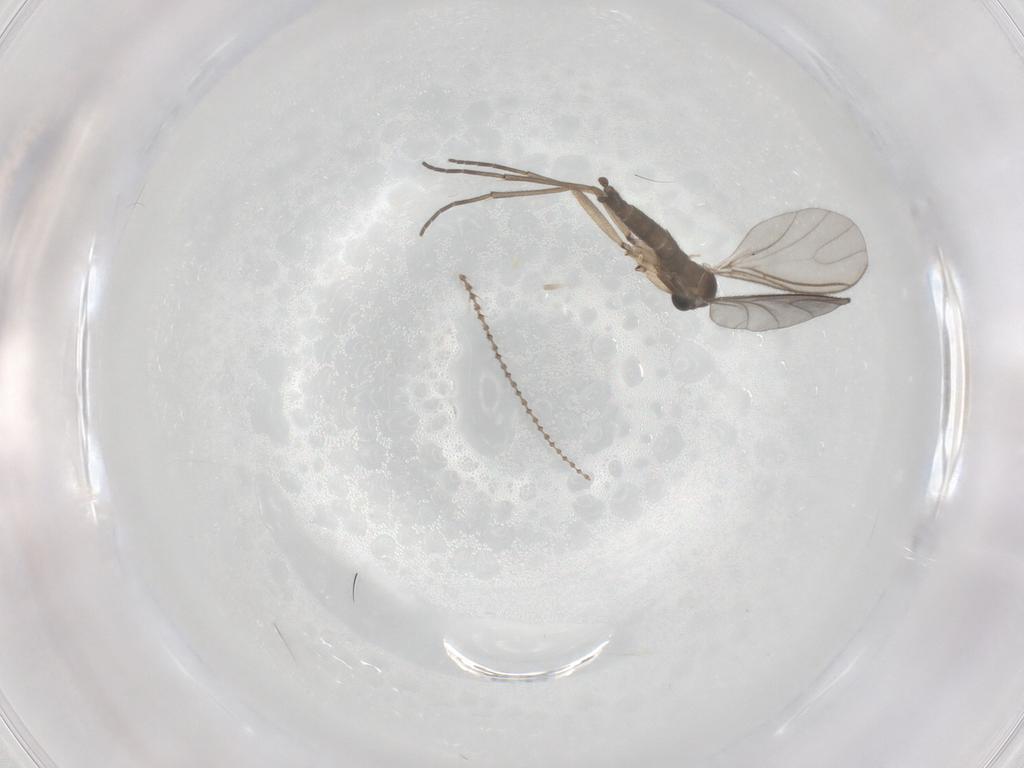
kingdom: Animalia
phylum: Arthropoda
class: Insecta
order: Diptera
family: Sciaridae
